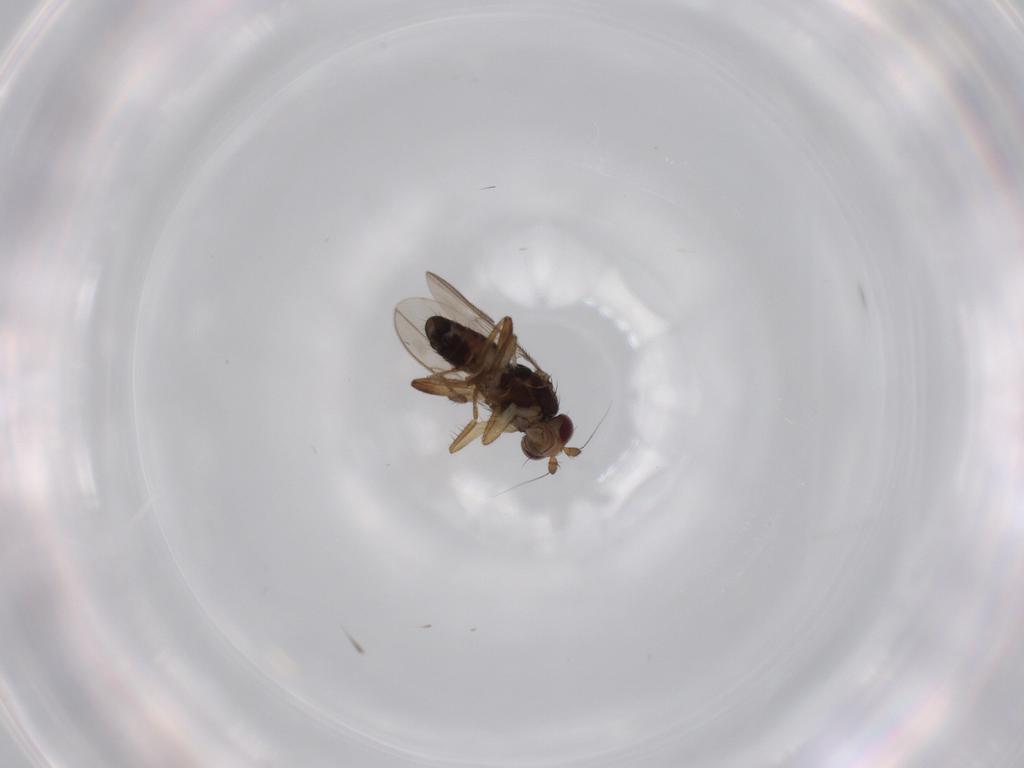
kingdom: Animalia
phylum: Arthropoda
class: Insecta
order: Diptera
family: Sphaeroceridae
